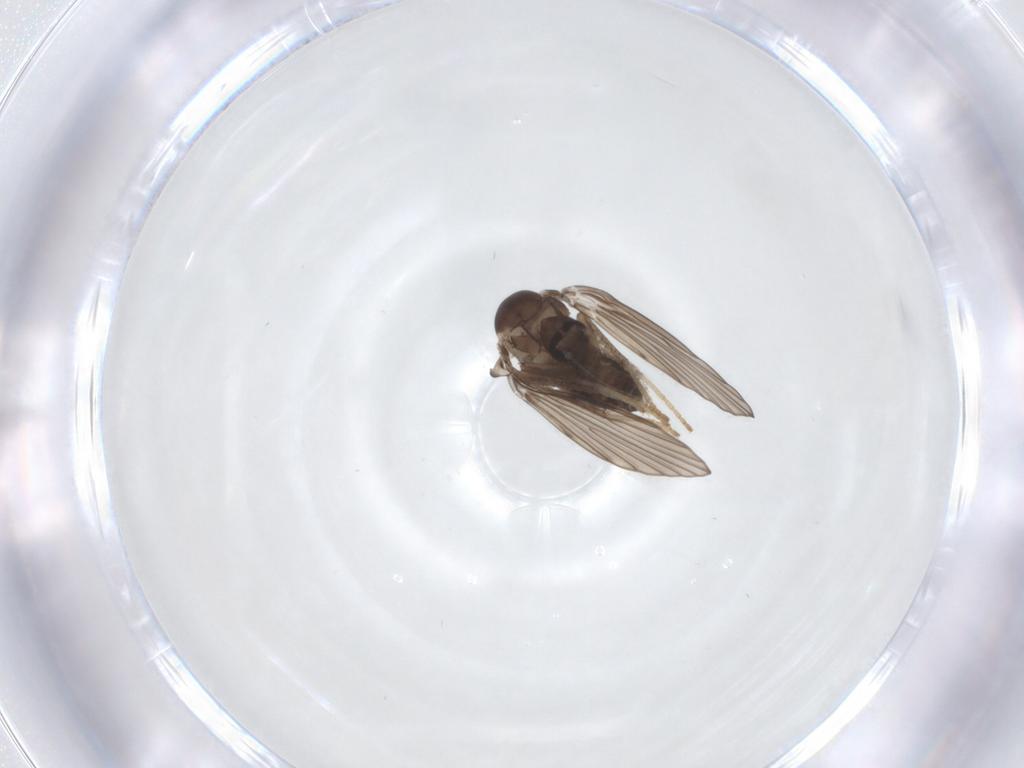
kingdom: Animalia
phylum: Arthropoda
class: Insecta
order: Diptera
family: Psychodidae
